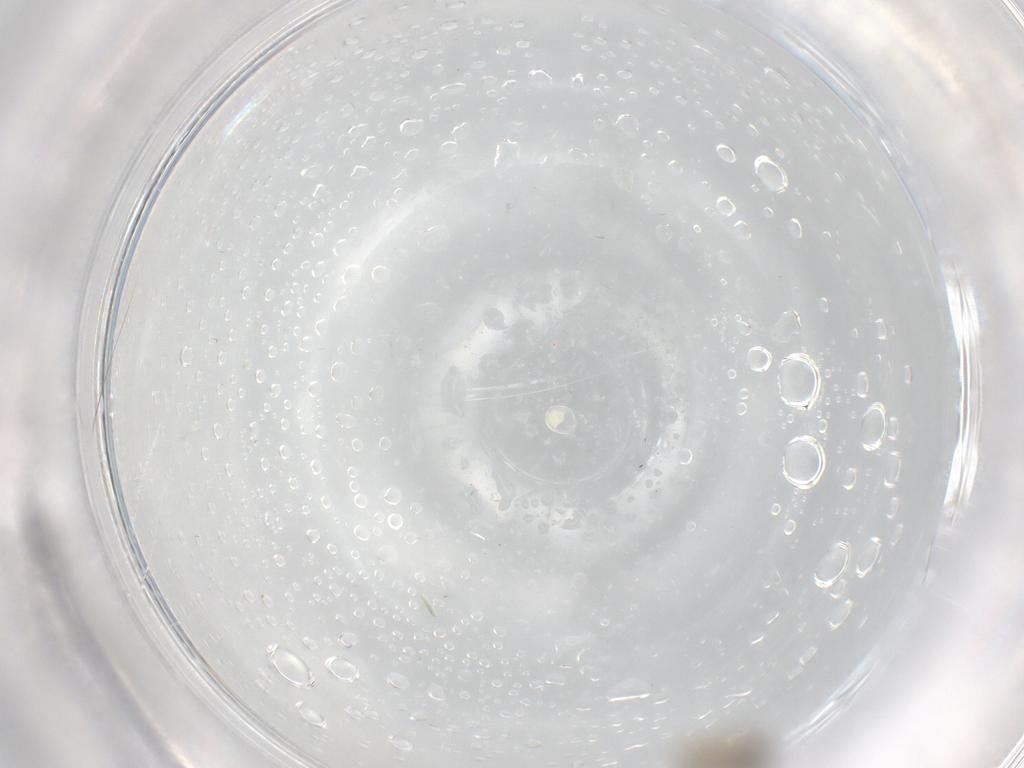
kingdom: Animalia
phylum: Arthropoda
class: Insecta
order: Diptera
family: Psychodidae
